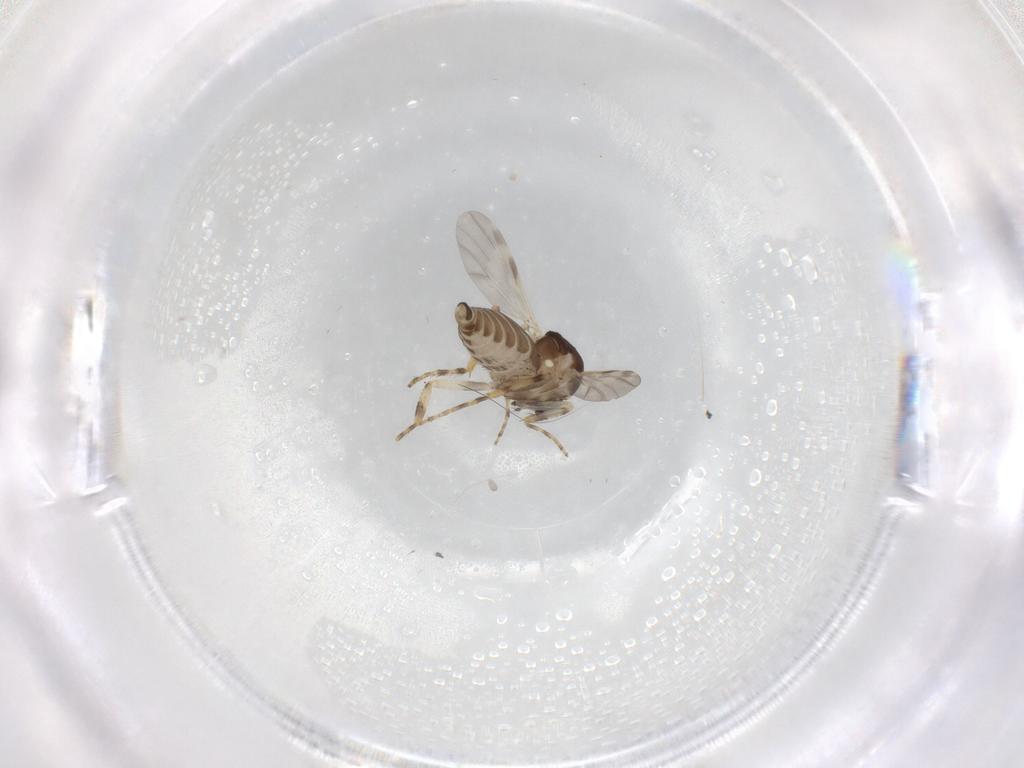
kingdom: Animalia
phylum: Arthropoda
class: Insecta
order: Diptera
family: Ceratopogonidae
